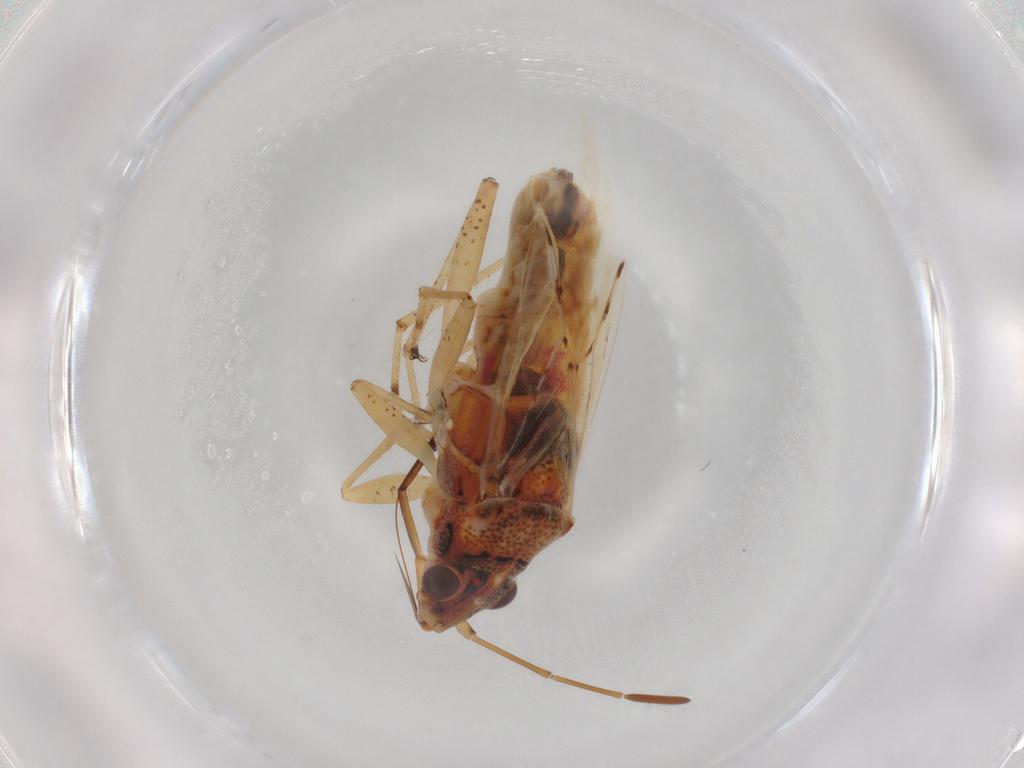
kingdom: Animalia
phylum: Arthropoda
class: Insecta
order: Hemiptera
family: Lygaeidae
